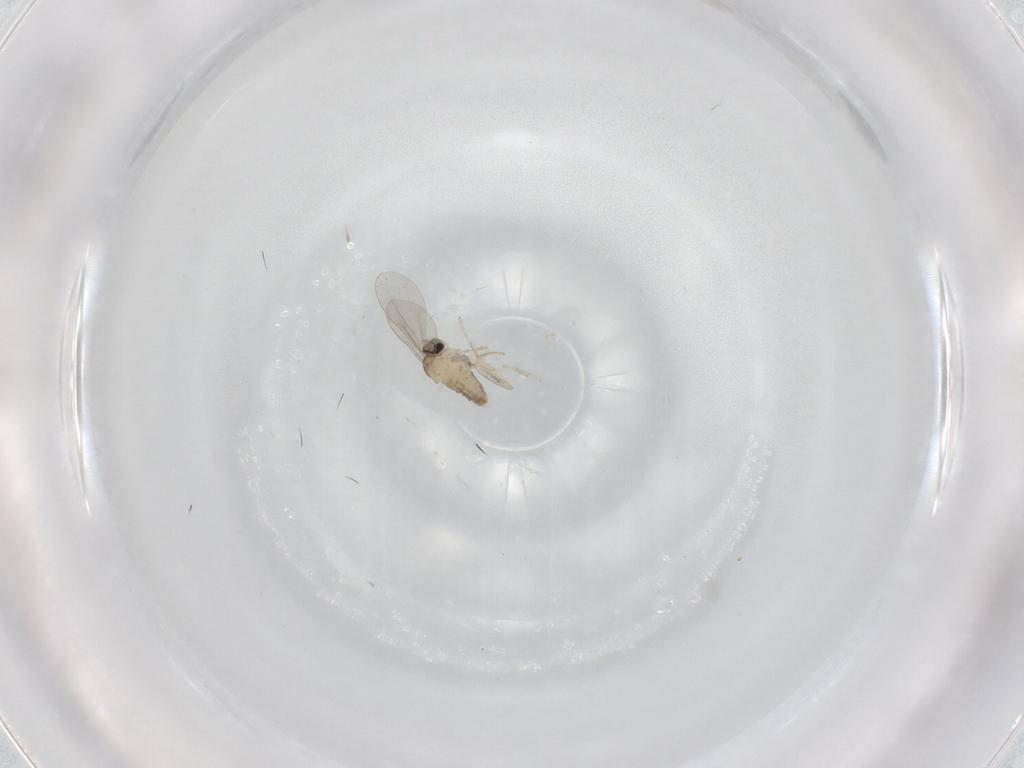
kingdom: Animalia
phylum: Arthropoda
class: Insecta
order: Diptera
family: Cecidomyiidae
